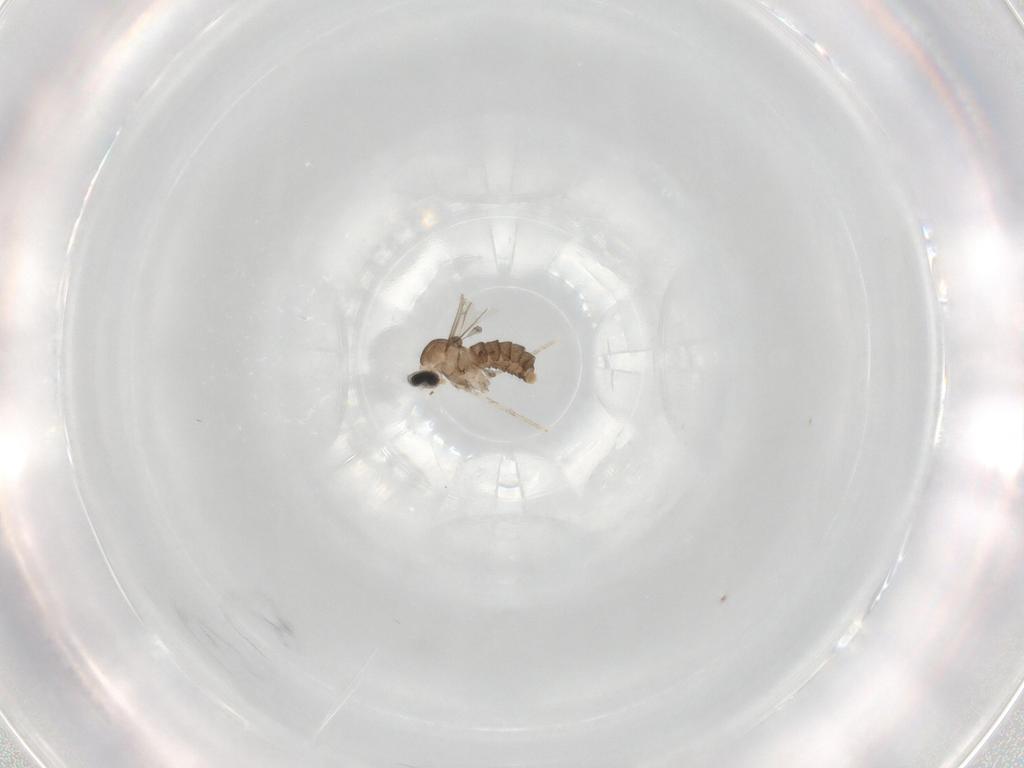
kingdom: Animalia
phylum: Arthropoda
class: Insecta
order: Diptera
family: Cecidomyiidae
